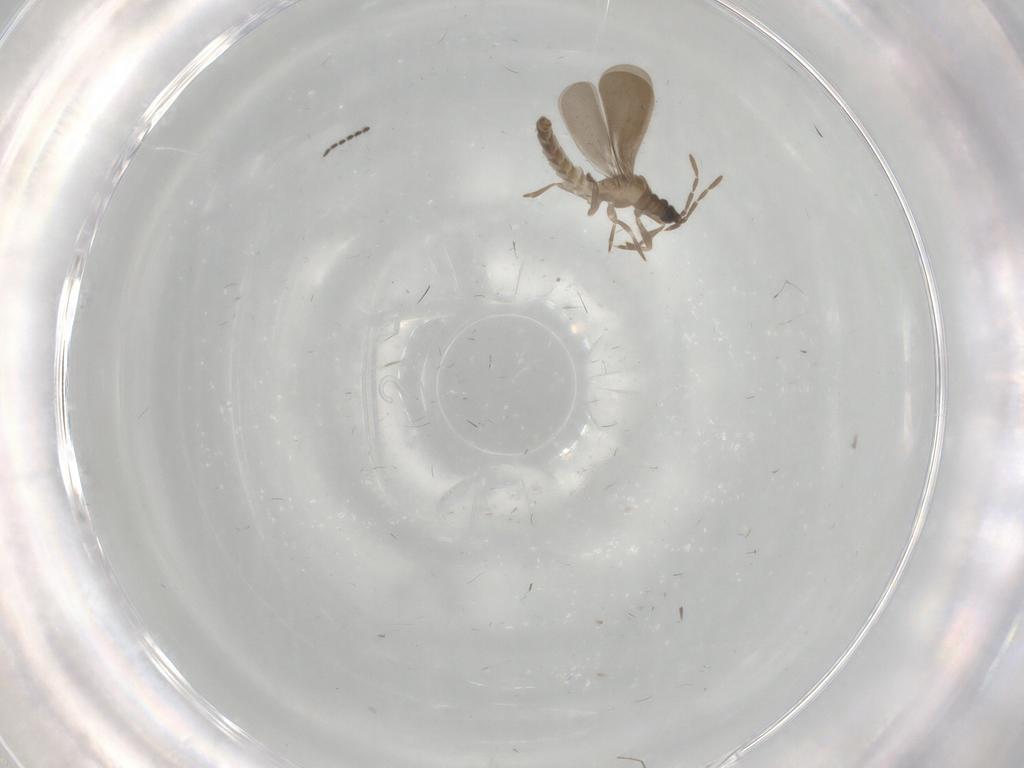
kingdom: Animalia
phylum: Arthropoda
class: Insecta
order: Hemiptera
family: Enicocephalidae
